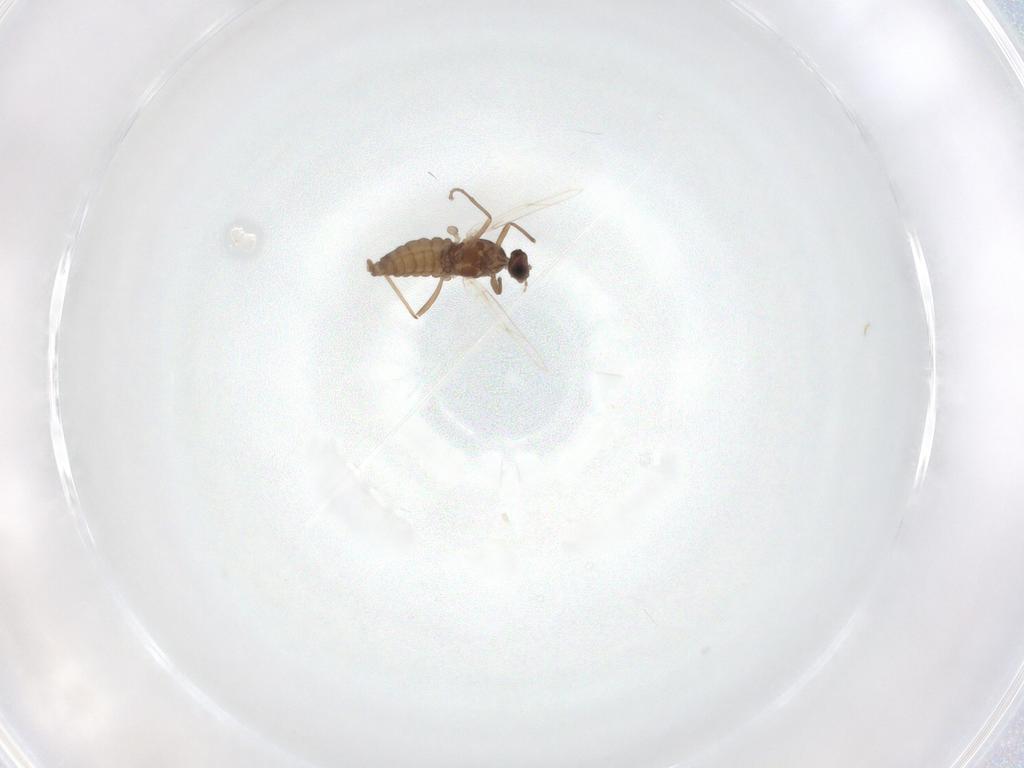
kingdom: Animalia
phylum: Arthropoda
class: Insecta
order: Diptera
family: Cecidomyiidae
